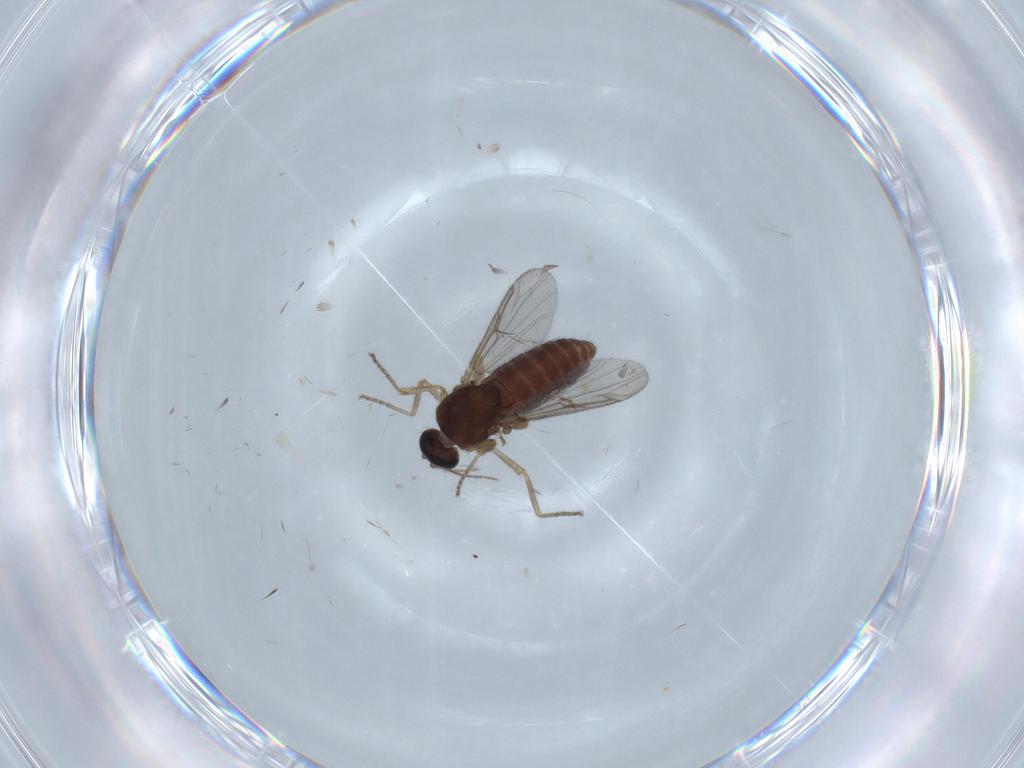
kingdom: Animalia
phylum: Arthropoda
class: Insecta
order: Diptera
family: Ceratopogonidae
